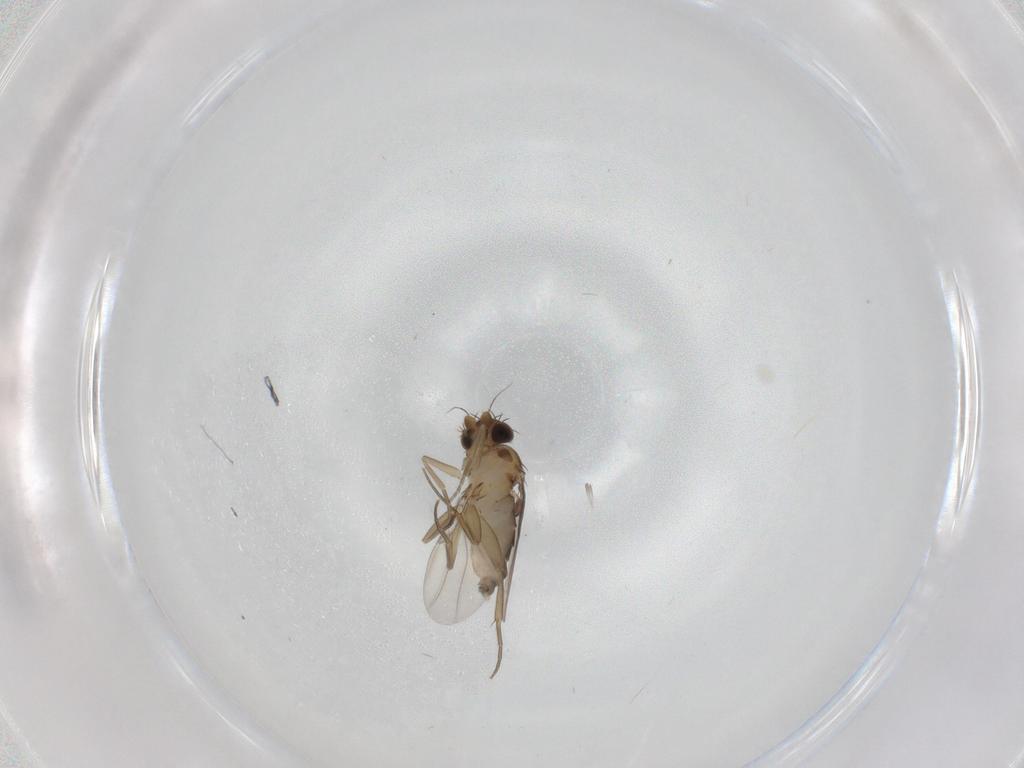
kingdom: Animalia
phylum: Arthropoda
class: Insecta
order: Diptera
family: Phoridae
